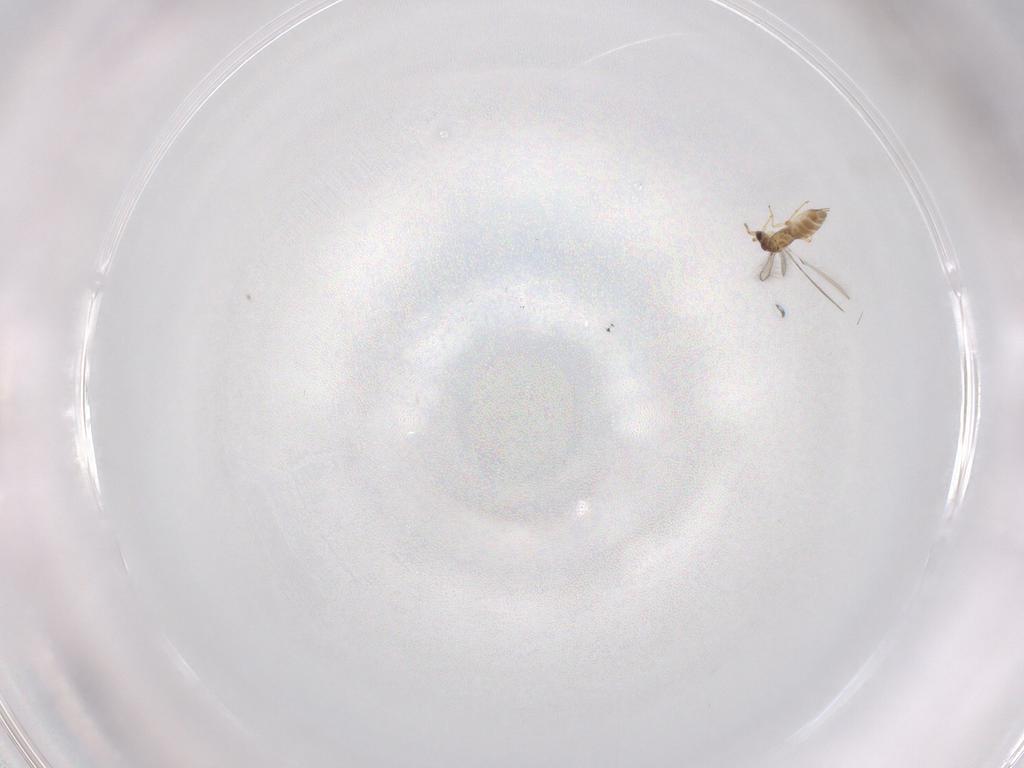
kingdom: Animalia
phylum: Arthropoda
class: Insecta
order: Hymenoptera
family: Mymaridae
